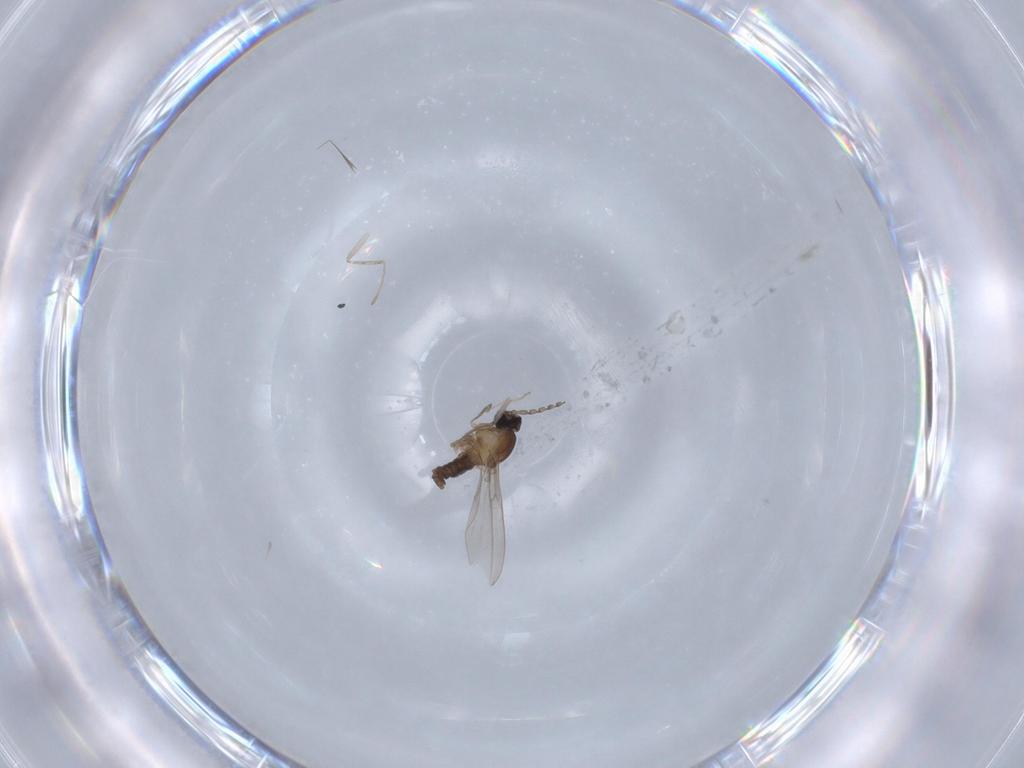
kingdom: Animalia
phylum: Arthropoda
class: Insecta
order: Diptera
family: Cecidomyiidae
